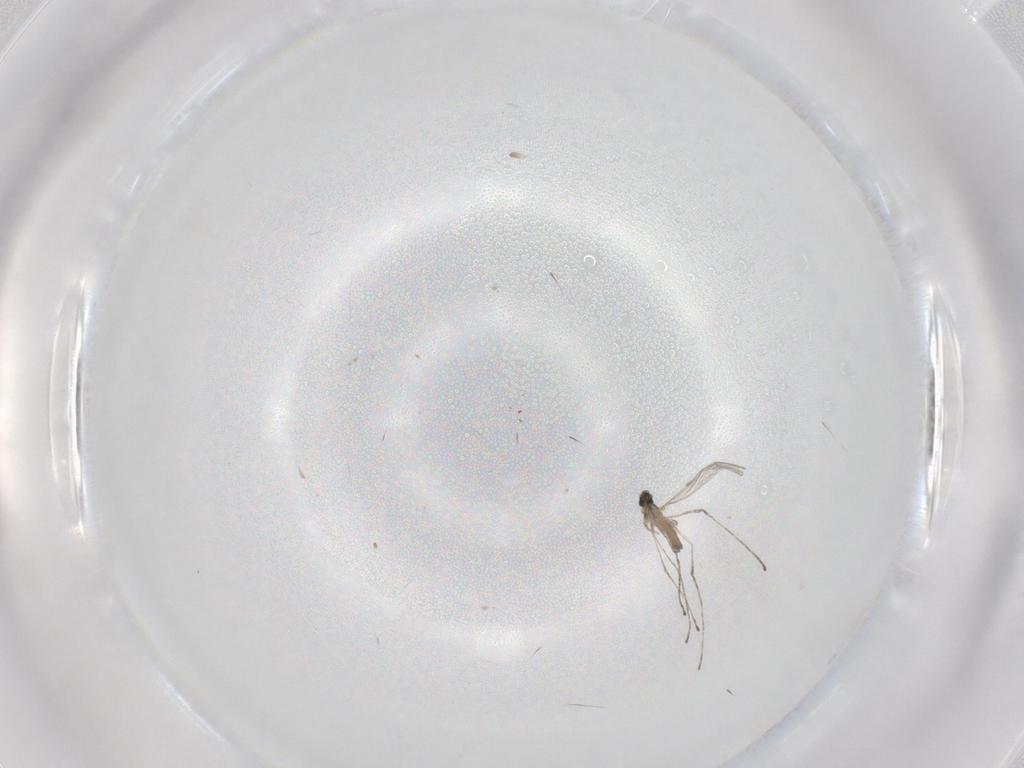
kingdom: Animalia
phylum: Arthropoda
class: Insecta
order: Diptera
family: Cecidomyiidae
